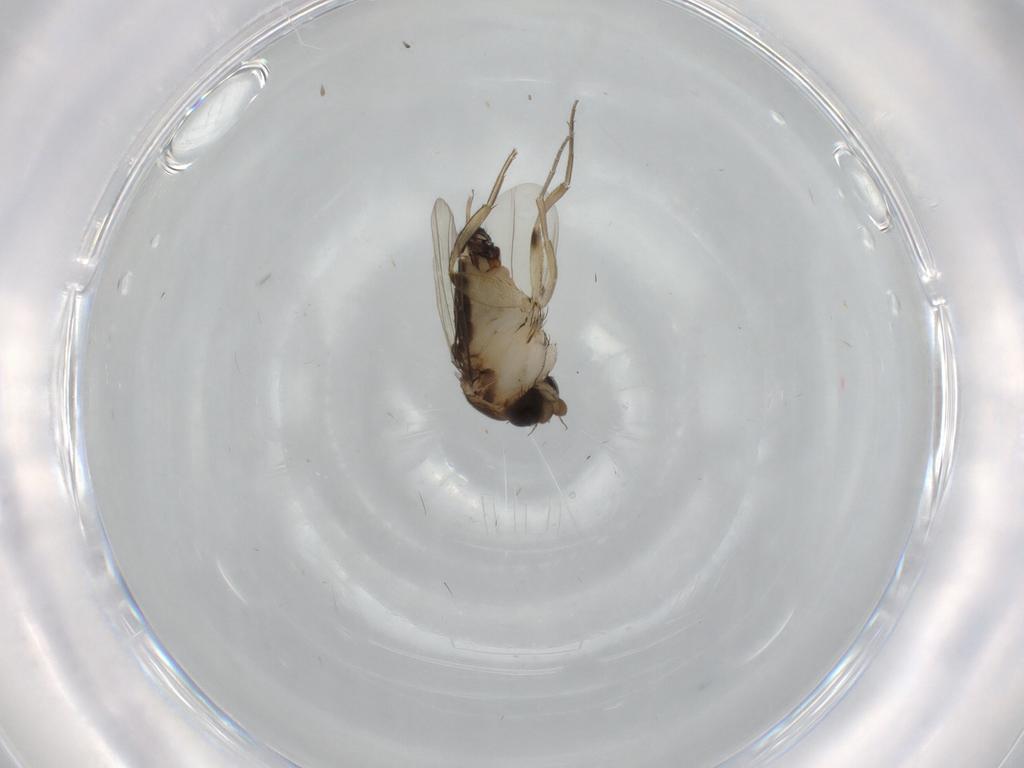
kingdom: Animalia
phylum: Arthropoda
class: Insecta
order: Diptera
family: Phoridae
